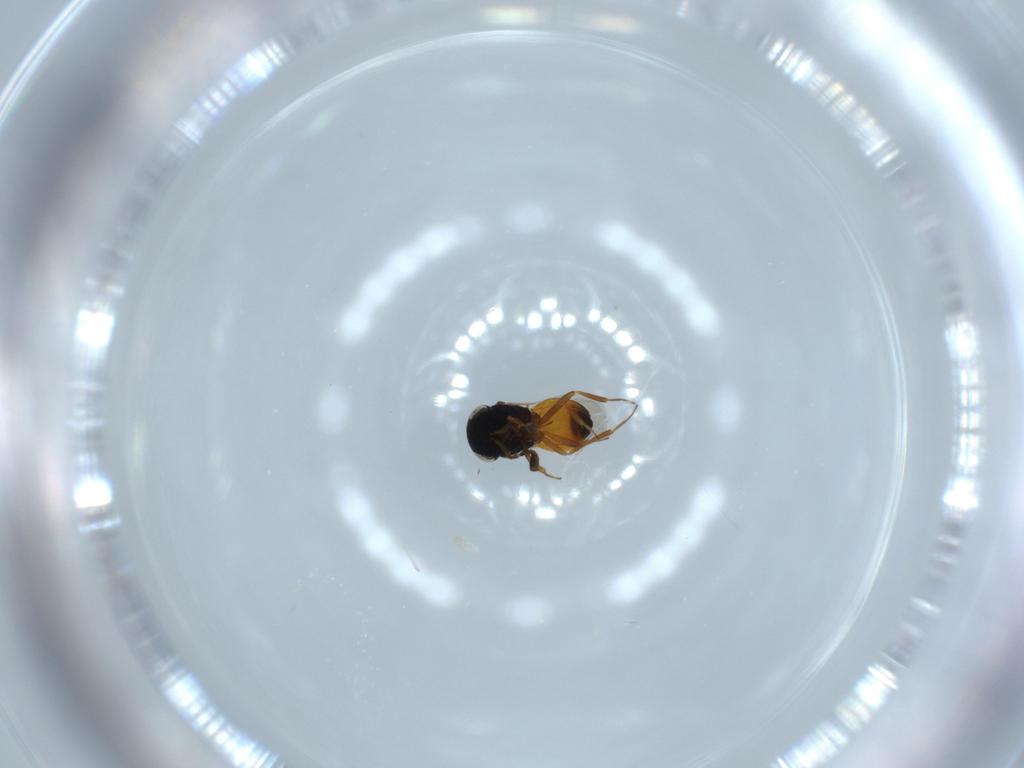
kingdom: Animalia
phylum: Arthropoda
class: Insecta
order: Hymenoptera
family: Scelionidae
